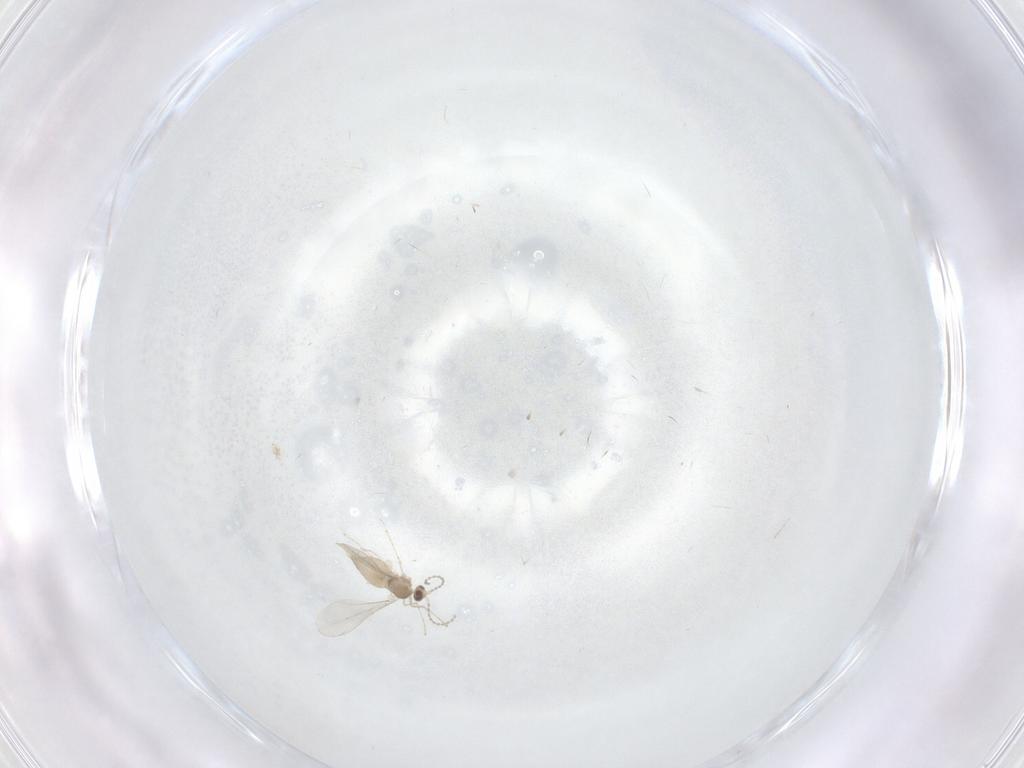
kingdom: Animalia
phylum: Arthropoda
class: Insecta
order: Diptera
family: Cecidomyiidae
